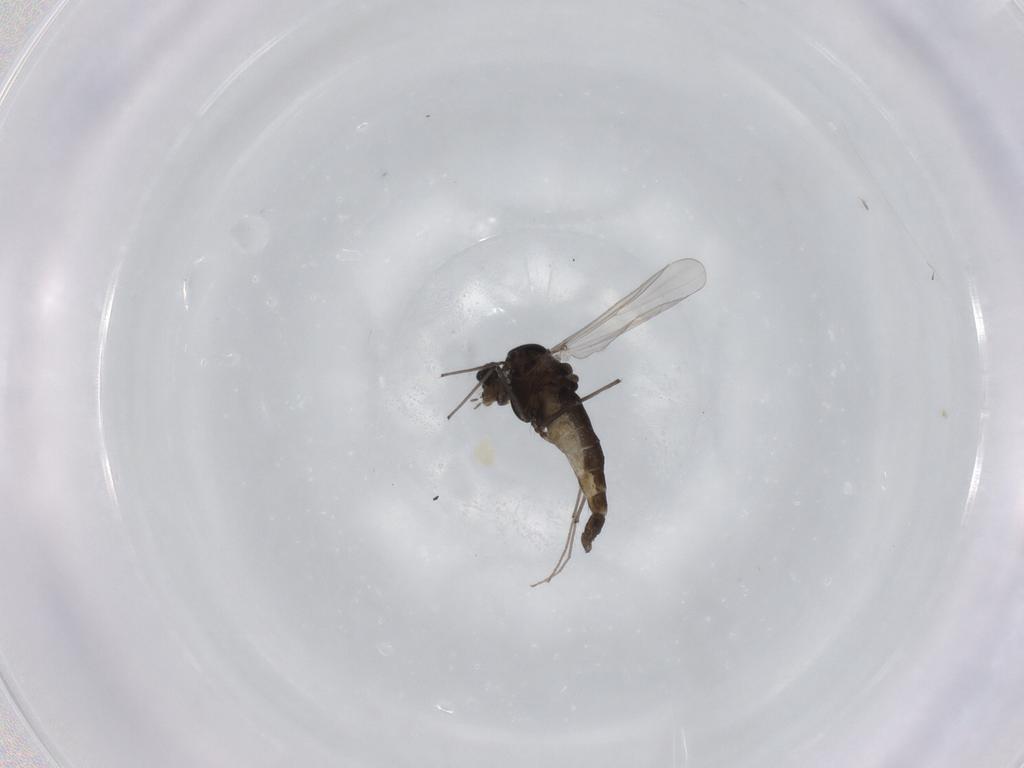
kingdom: Animalia
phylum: Arthropoda
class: Insecta
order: Diptera
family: Chironomidae
